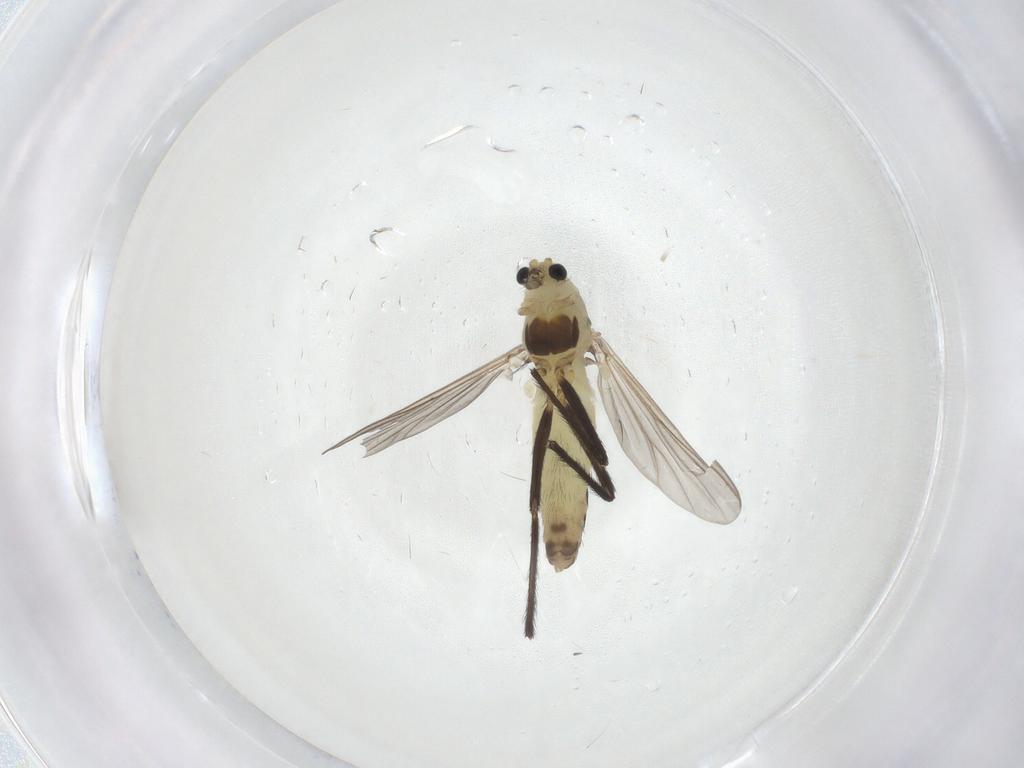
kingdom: Animalia
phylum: Arthropoda
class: Insecta
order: Diptera
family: Chironomidae
